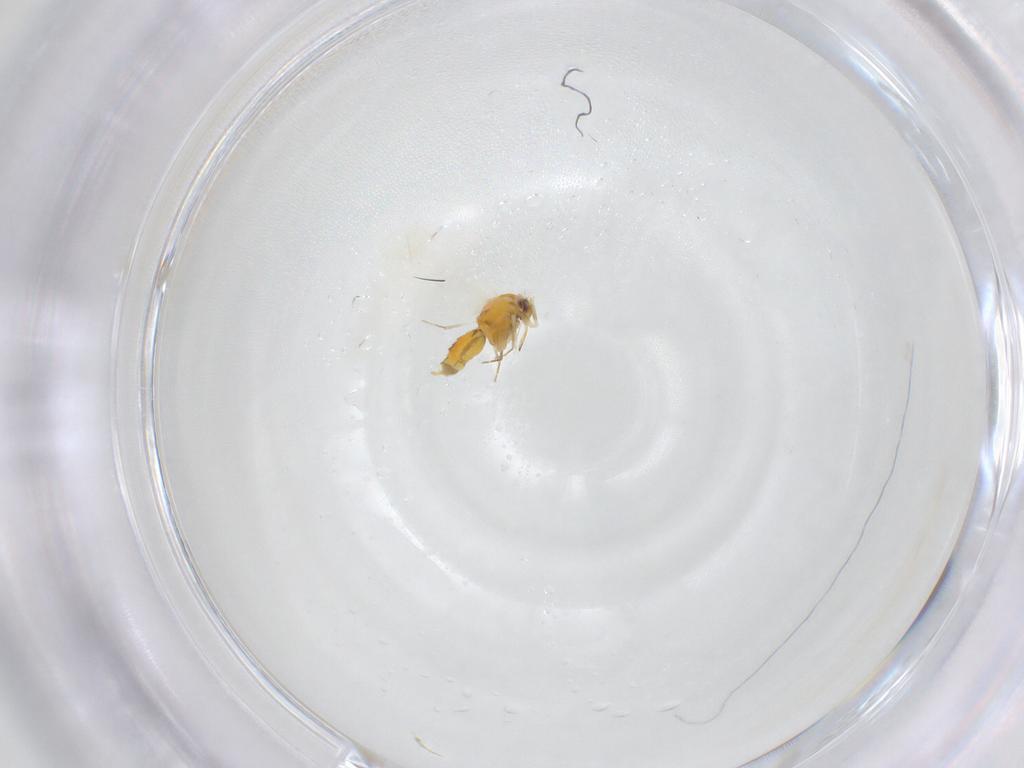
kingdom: Animalia
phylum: Arthropoda
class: Insecta
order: Hemiptera
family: Aleyrodidae
